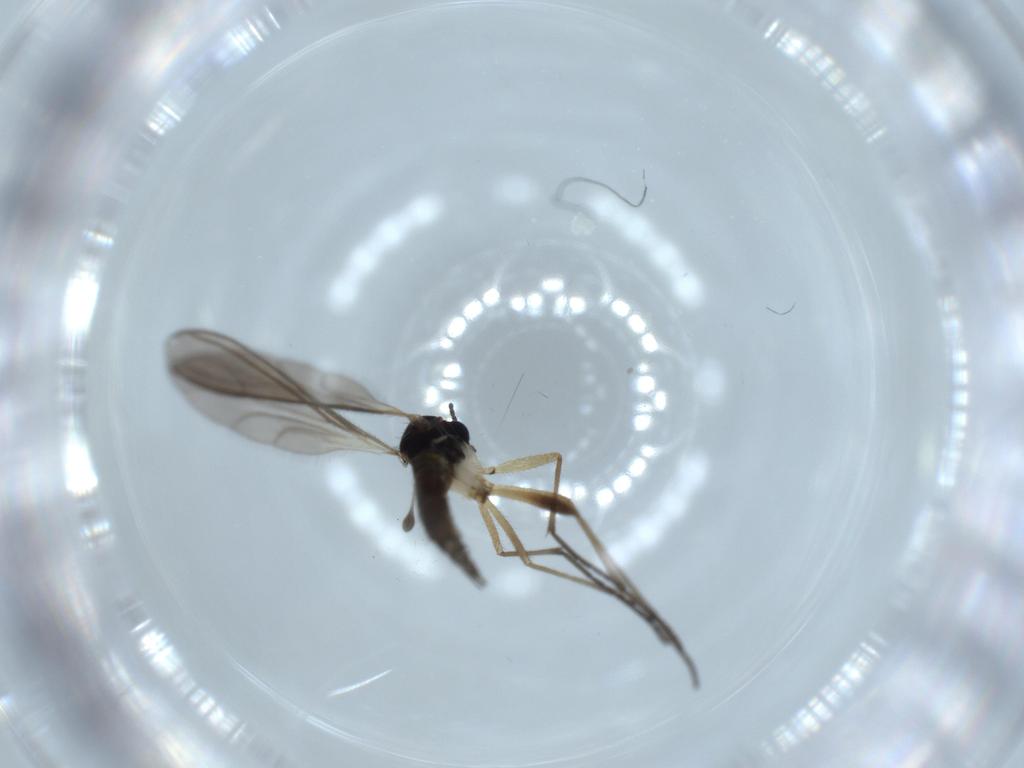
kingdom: Animalia
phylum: Arthropoda
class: Insecta
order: Diptera
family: Sciaridae
